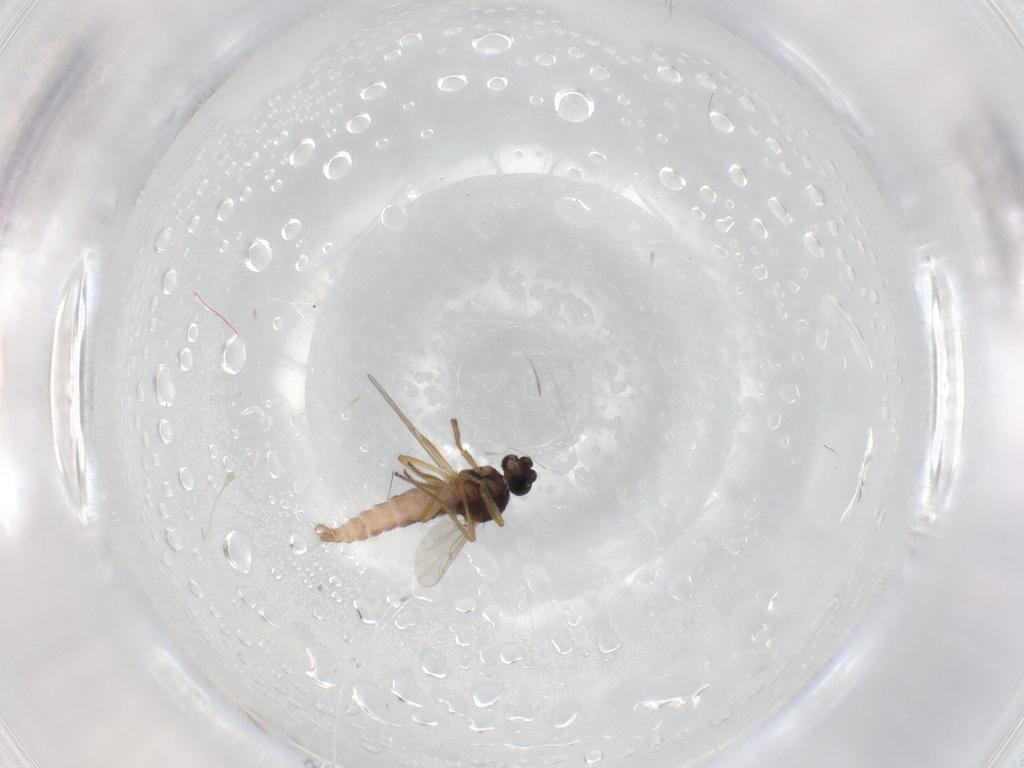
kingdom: Animalia
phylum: Arthropoda
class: Insecta
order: Diptera
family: Ceratopogonidae
